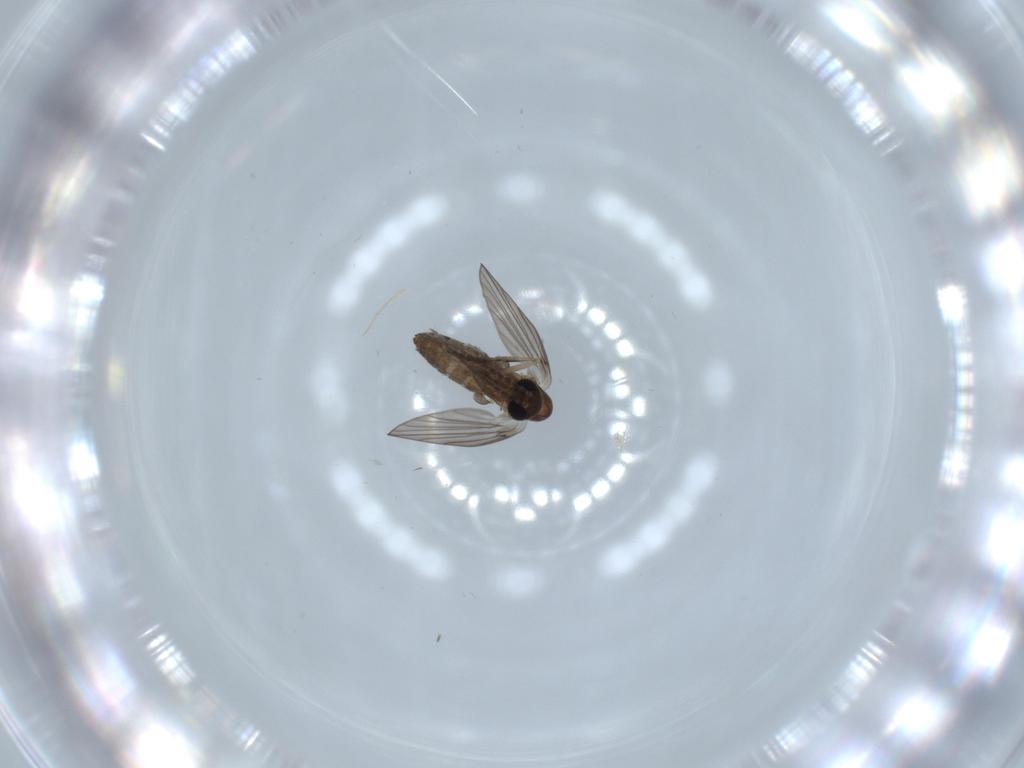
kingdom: Animalia
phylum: Arthropoda
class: Insecta
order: Diptera
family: Psychodidae
